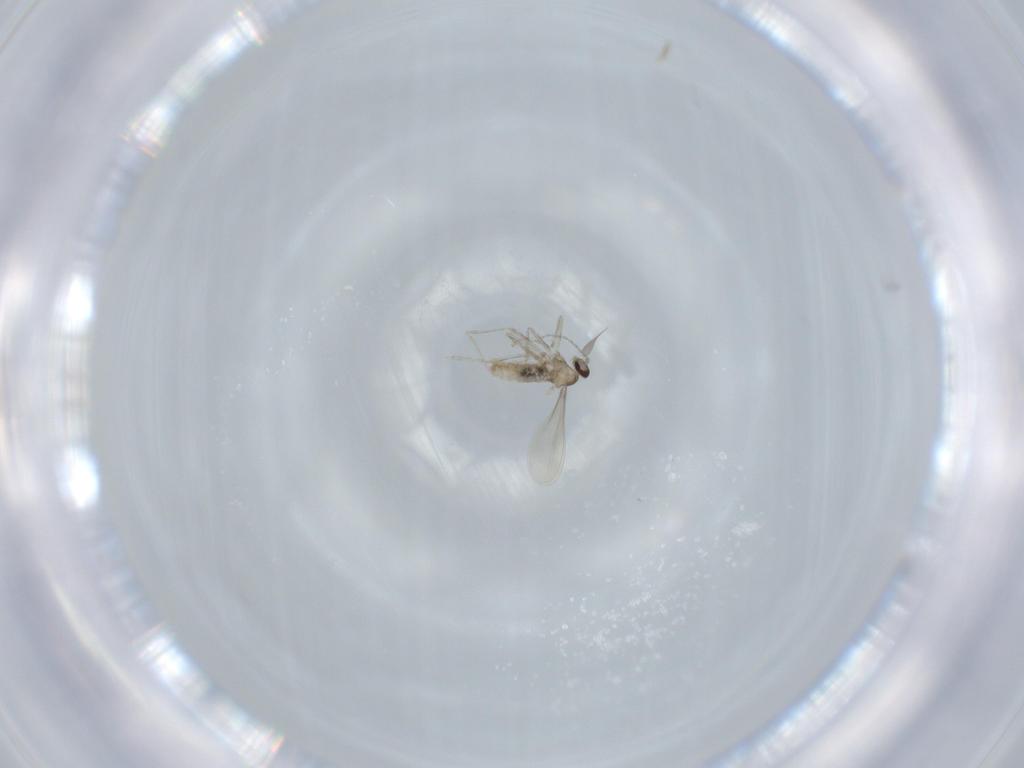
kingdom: Animalia
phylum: Arthropoda
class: Insecta
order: Diptera
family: Cecidomyiidae
